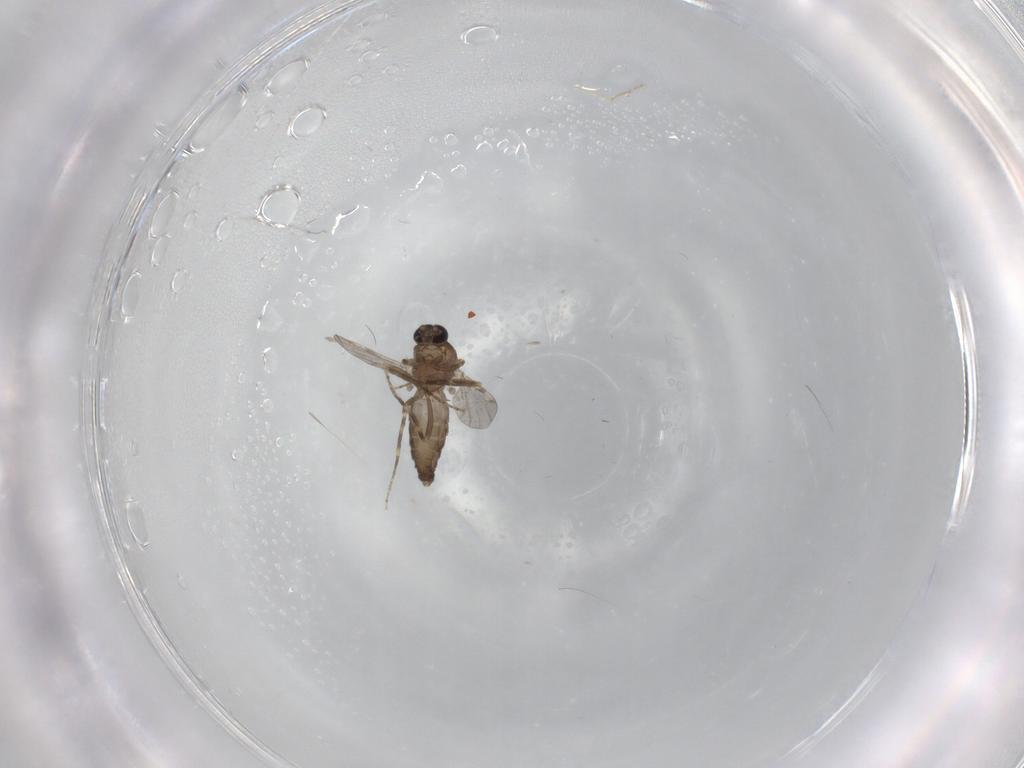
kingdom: Animalia
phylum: Arthropoda
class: Insecta
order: Diptera
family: Ceratopogonidae
